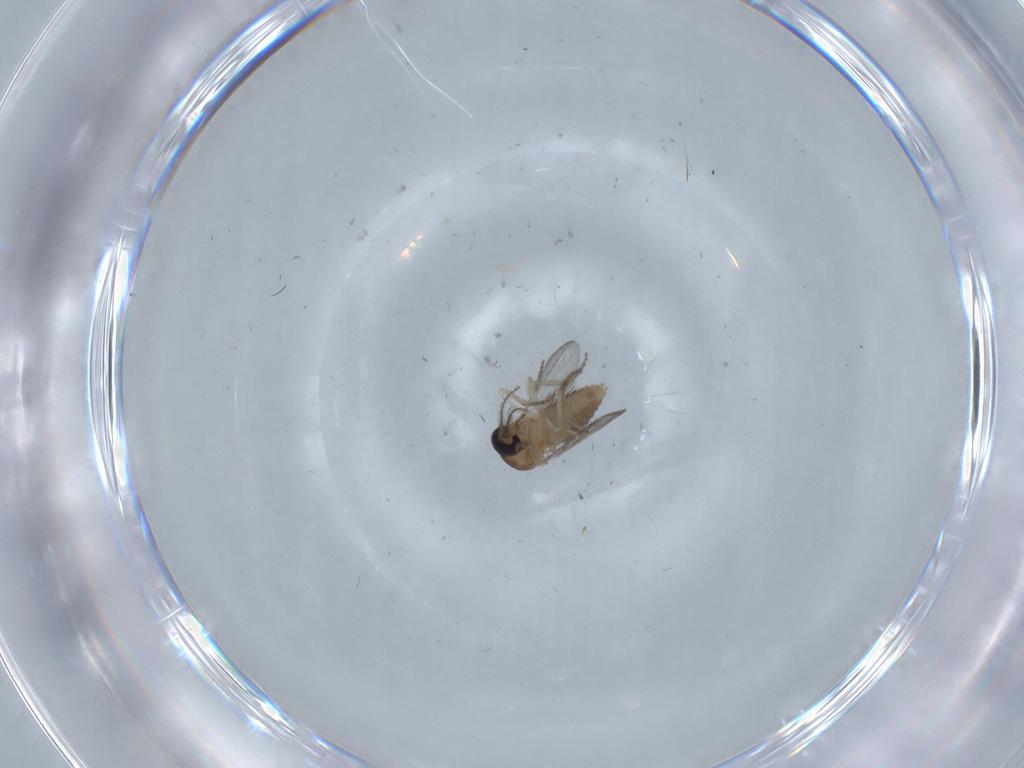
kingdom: Animalia
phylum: Arthropoda
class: Insecta
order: Diptera
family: Chironomidae
